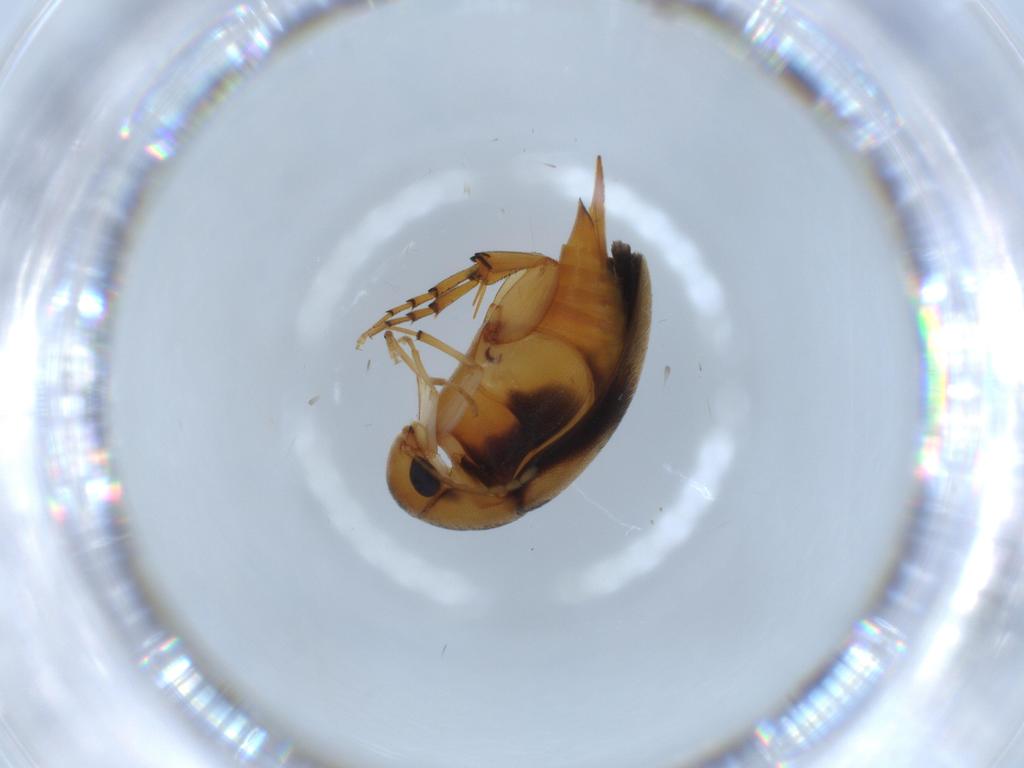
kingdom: Animalia
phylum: Arthropoda
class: Insecta
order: Coleoptera
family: Mordellidae
